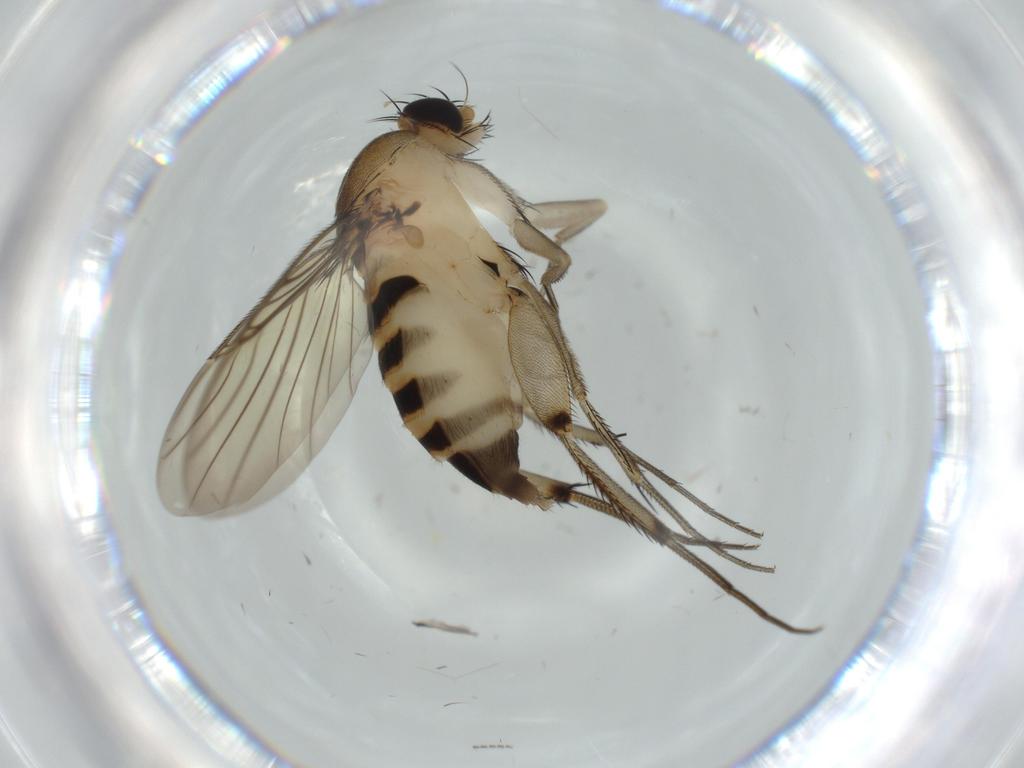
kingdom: Animalia
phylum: Arthropoda
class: Insecta
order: Diptera
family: Phoridae
